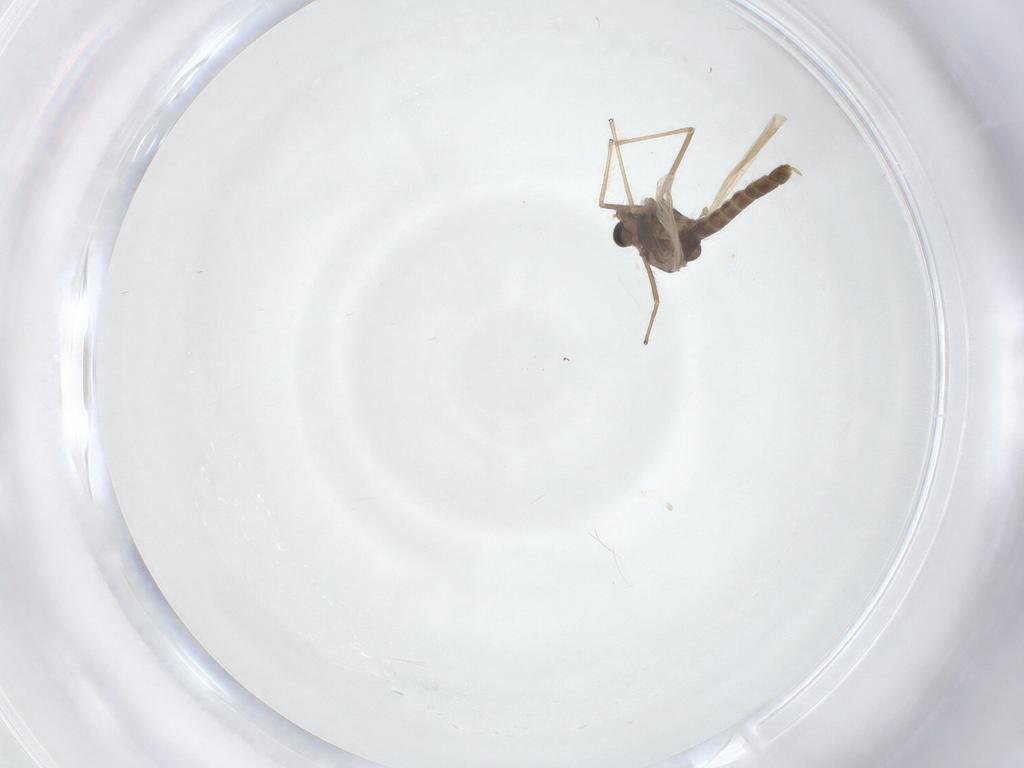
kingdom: Animalia
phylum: Arthropoda
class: Insecta
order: Diptera
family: Chironomidae
